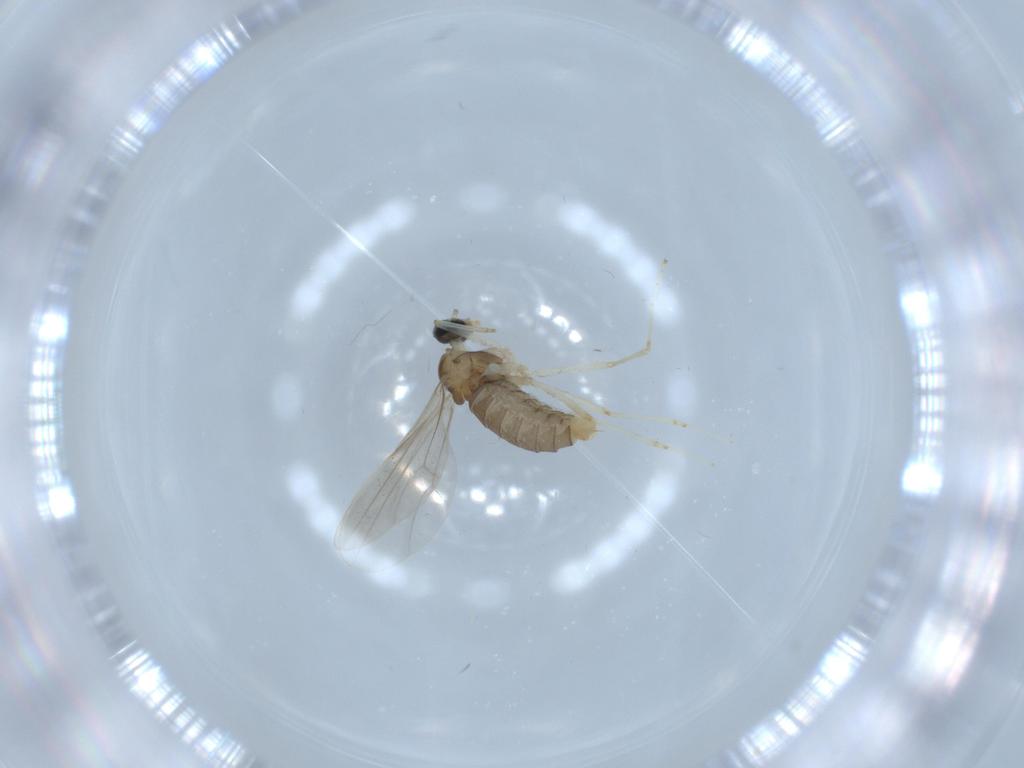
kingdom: Animalia
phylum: Arthropoda
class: Insecta
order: Diptera
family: Cecidomyiidae
